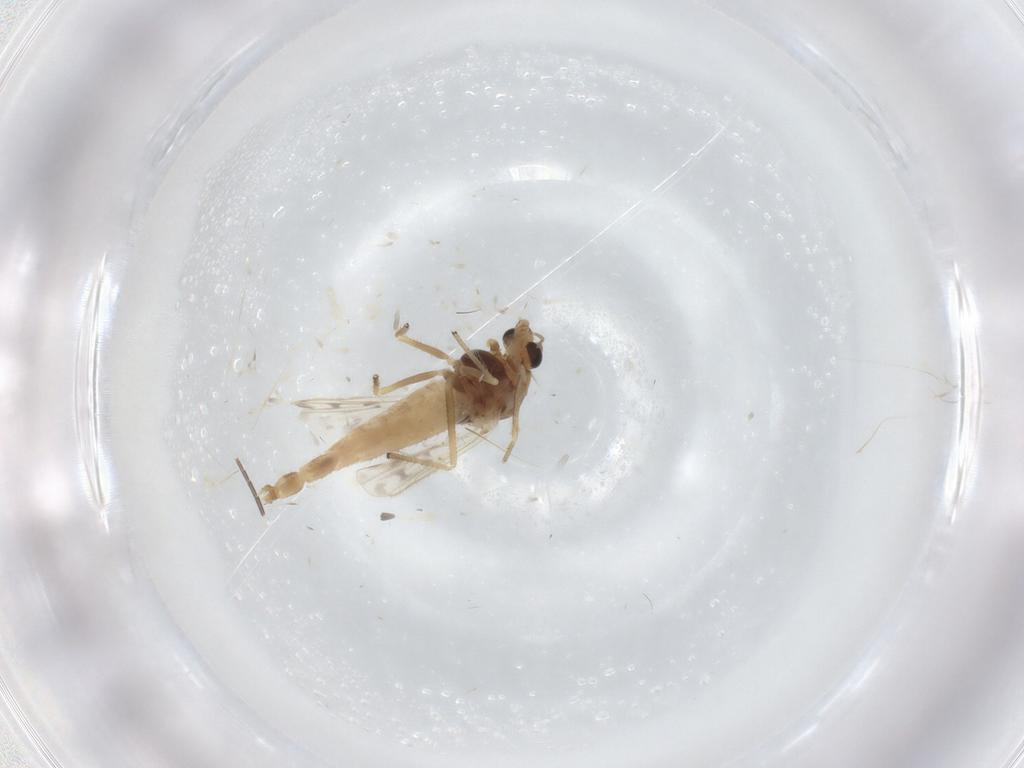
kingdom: Animalia
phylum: Arthropoda
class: Insecta
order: Diptera
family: Chironomidae
